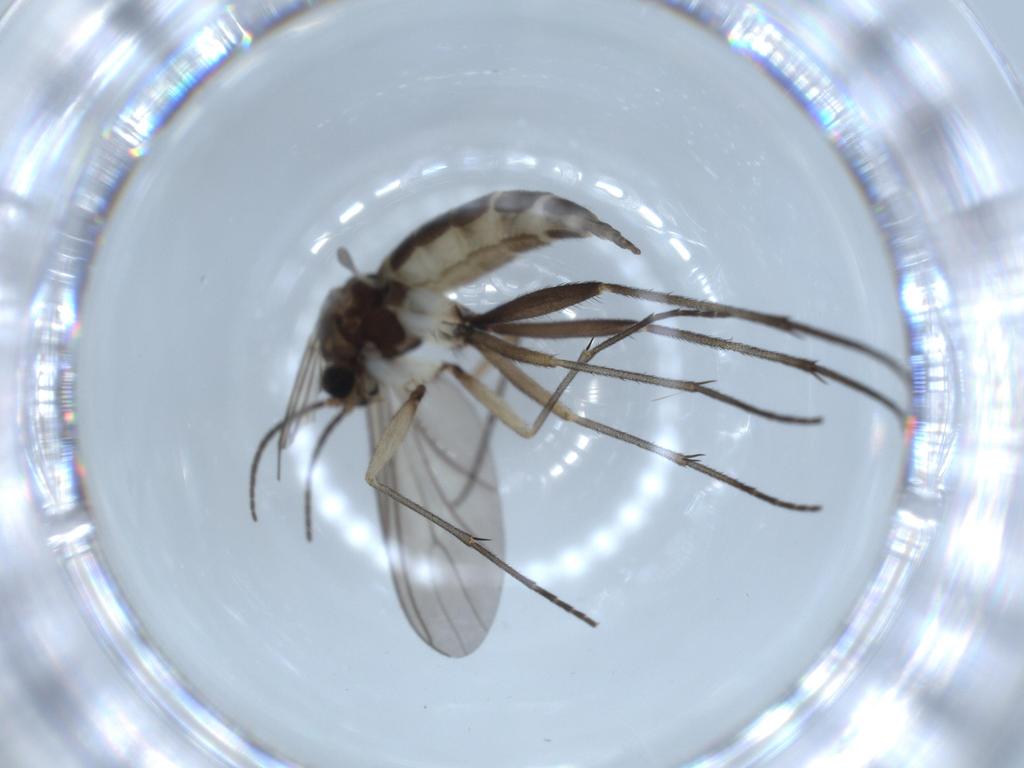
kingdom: Animalia
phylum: Arthropoda
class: Insecta
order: Diptera
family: Sciaridae
